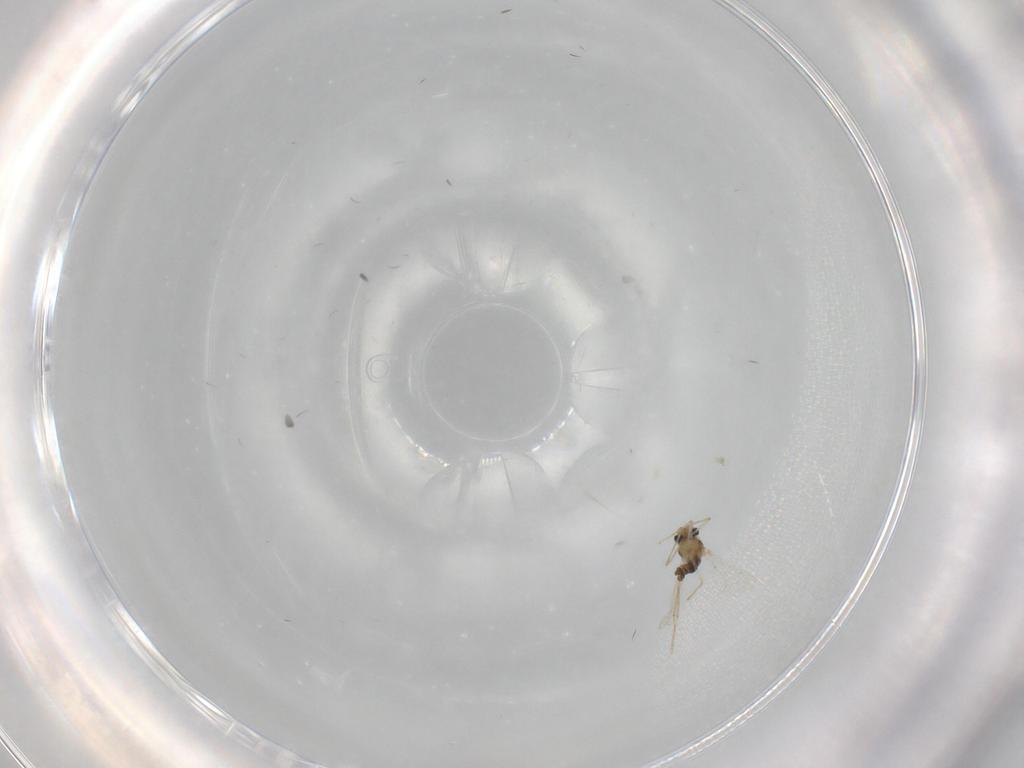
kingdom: Animalia
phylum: Arthropoda
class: Insecta
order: Diptera
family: Chironomidae
